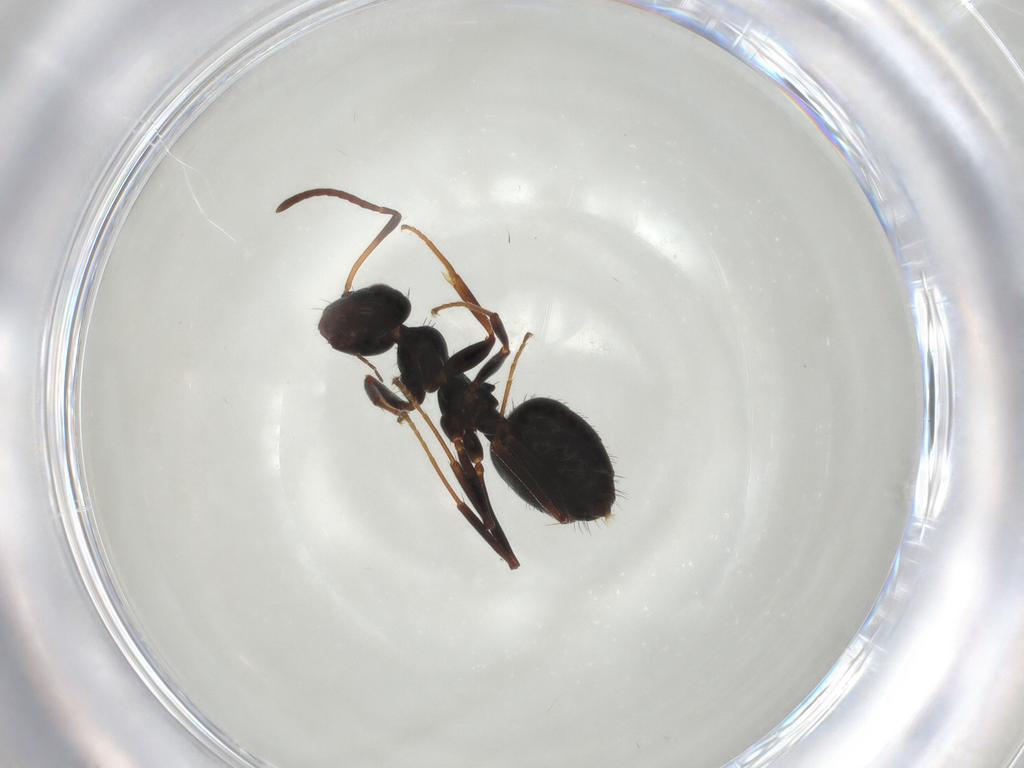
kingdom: Animalia
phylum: Arthropoda
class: Insecta
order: Hymenoptera
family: Formicidae
